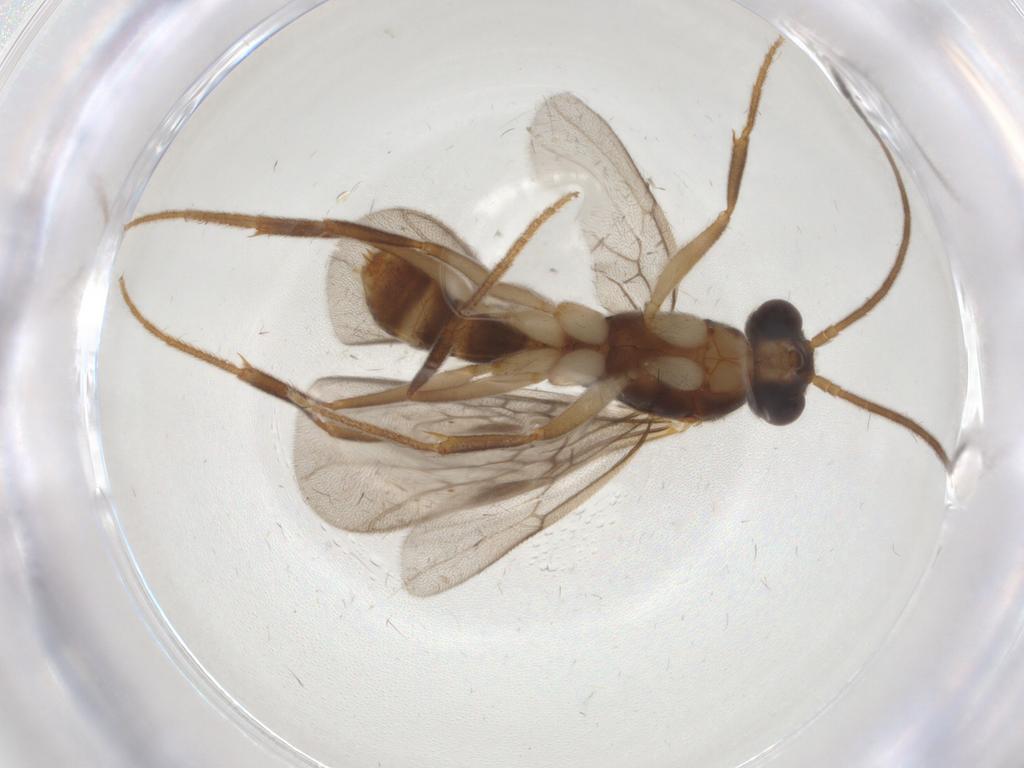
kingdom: Animalia
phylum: Arthropoda
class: Insecta
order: Hymenoptera
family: Formicidae
